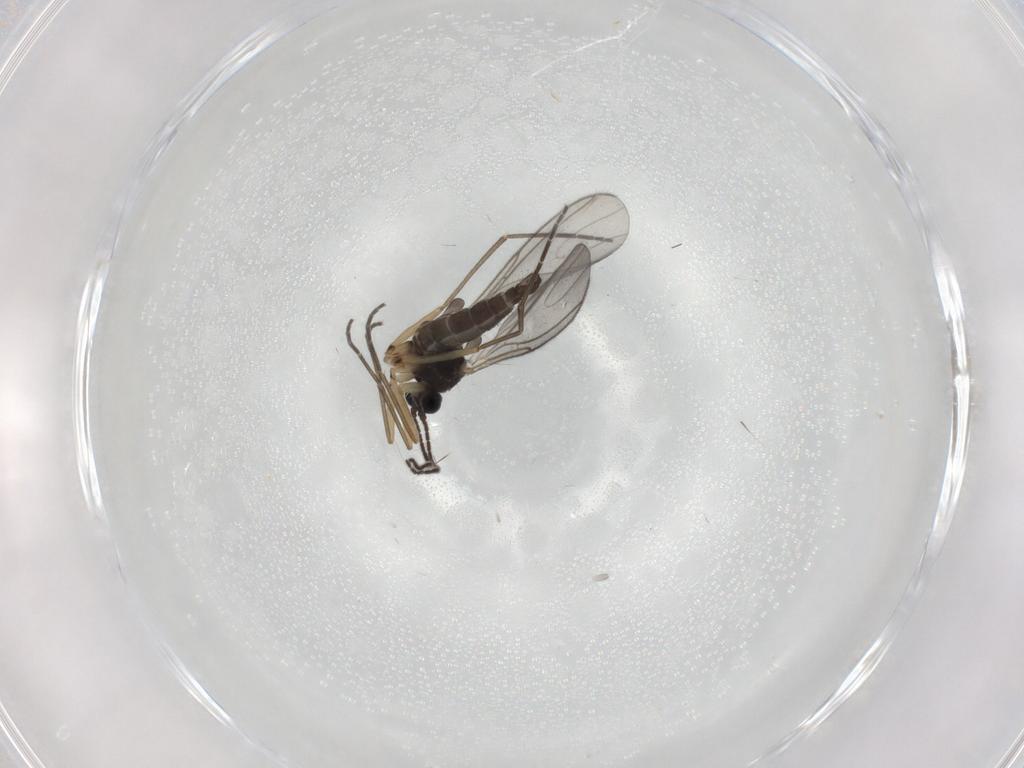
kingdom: Animalia
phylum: Arthropoda
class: Insecta
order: Diptera
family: Sciaridae
